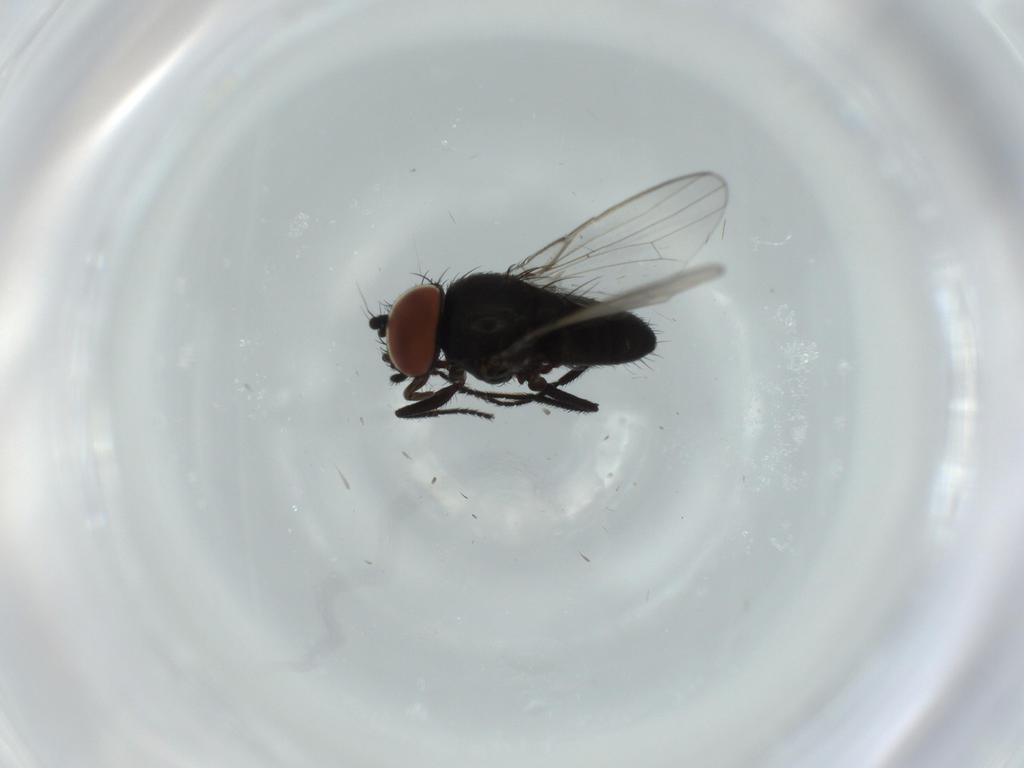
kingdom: Animalia
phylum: Arthropoda
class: Insecta
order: Diptera
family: Milichiidae
